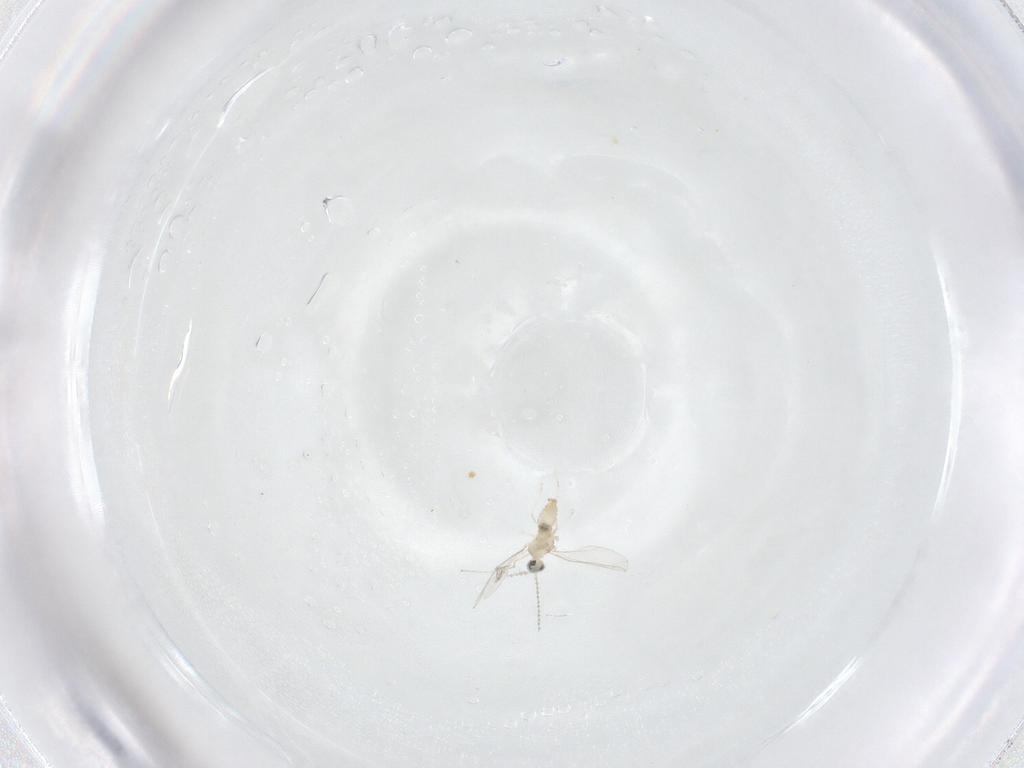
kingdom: Animalia
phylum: Arthropoda
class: Insecta
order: Diptera
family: Cecidomyiidae
